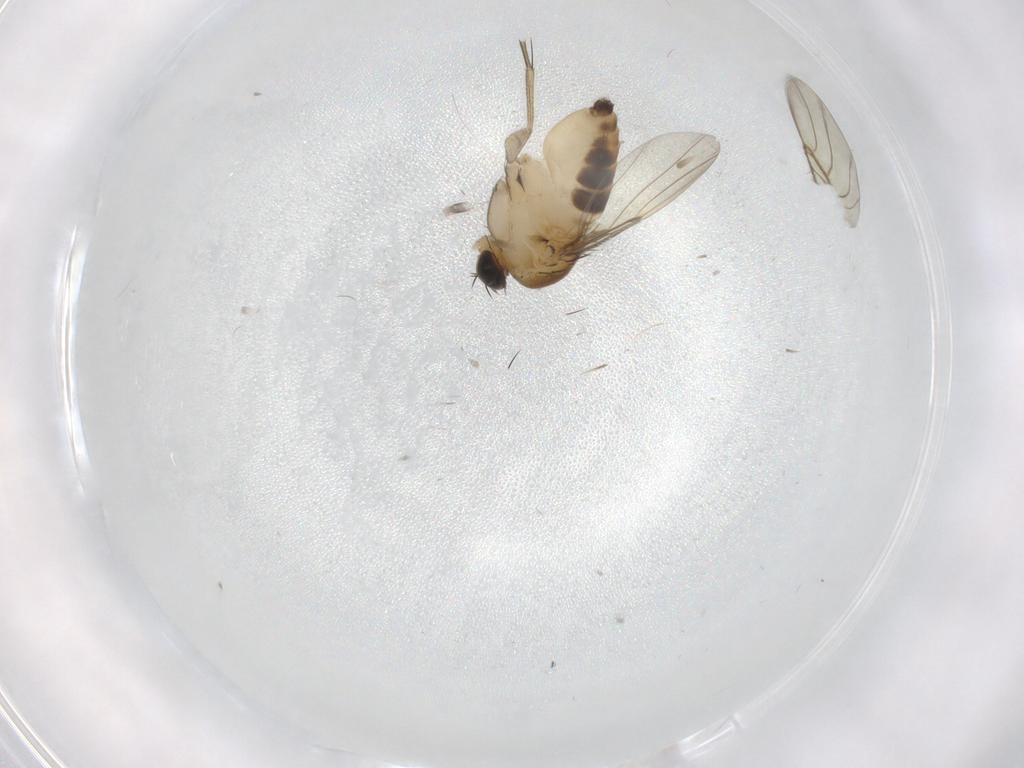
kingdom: Animalia
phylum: Arthropoda
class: Insecta
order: Diptera
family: Phoridae
